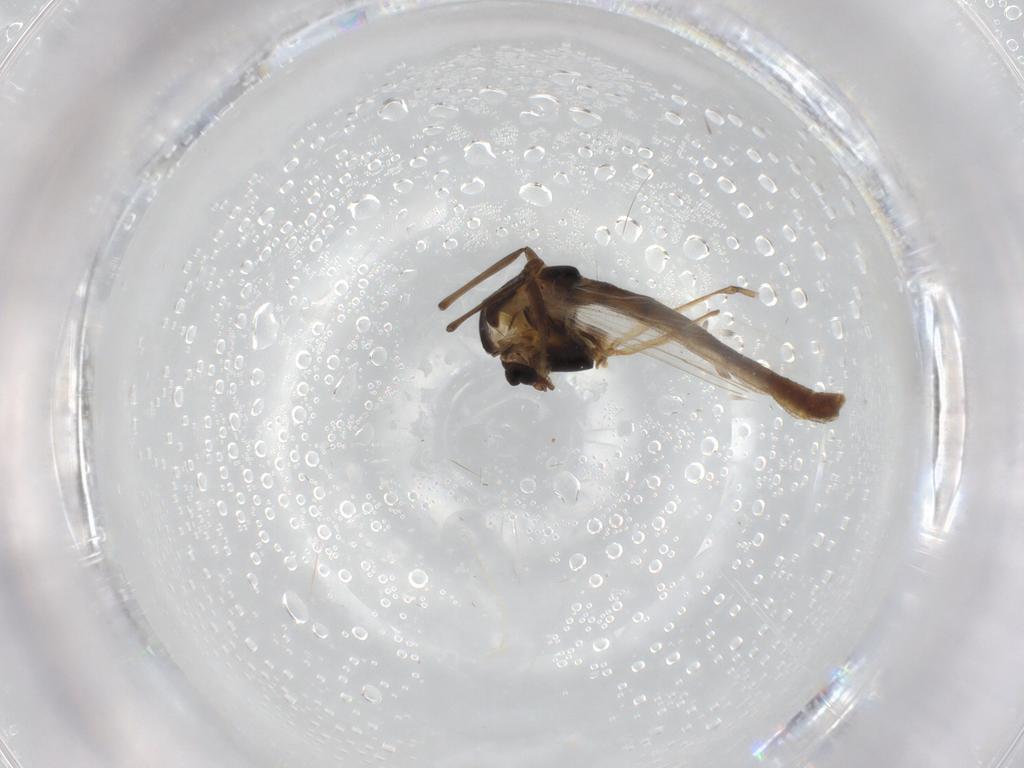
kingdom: Animalia
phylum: Arthropoda
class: Insecta
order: Diptera
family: Chironomidae
